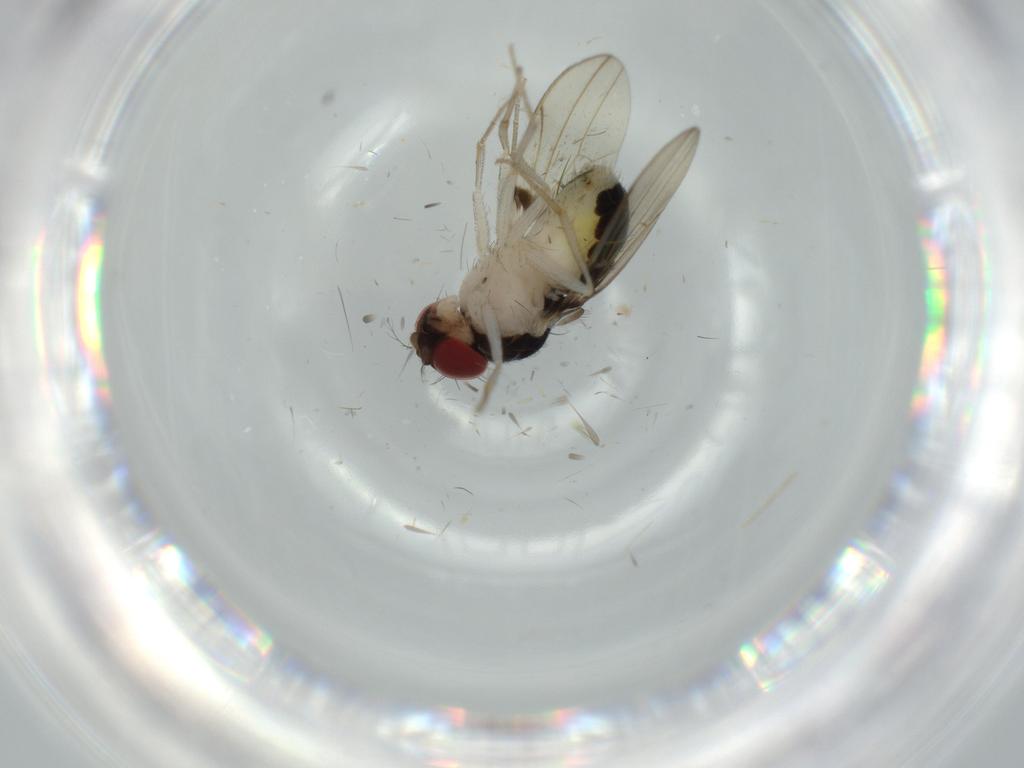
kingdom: Animalia
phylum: Arthropoda
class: Insecta
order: Diptera
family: Drosophilidae
